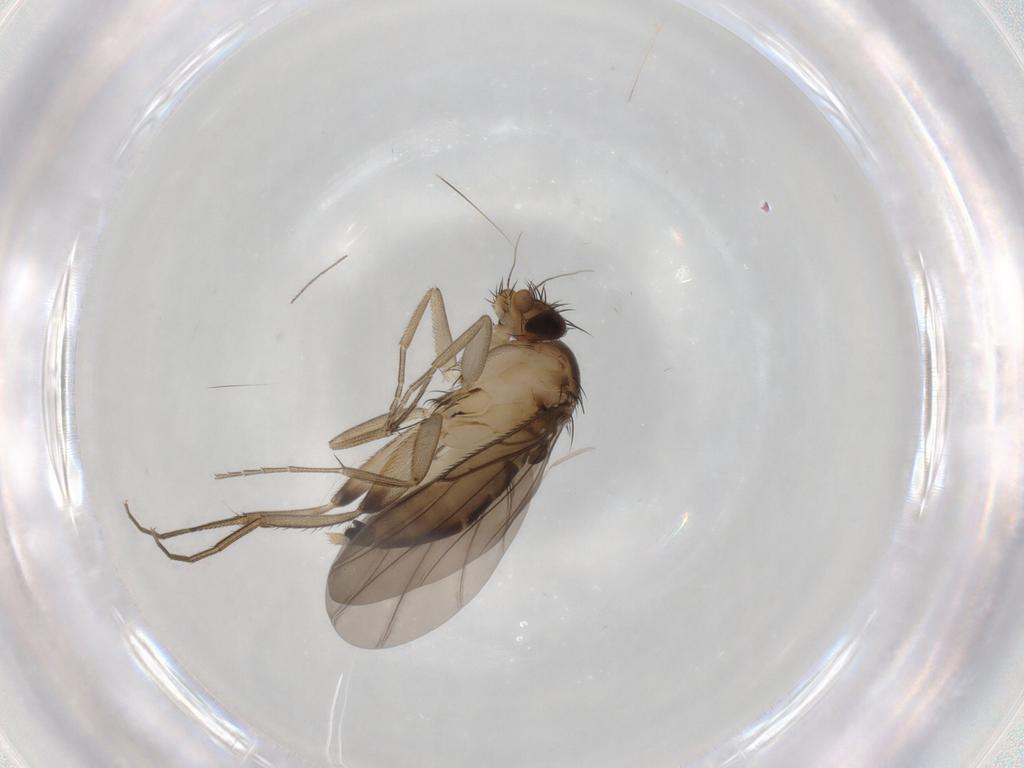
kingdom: Animalia
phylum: Arthropoda
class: Insecta
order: Diptera
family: Phoridae
